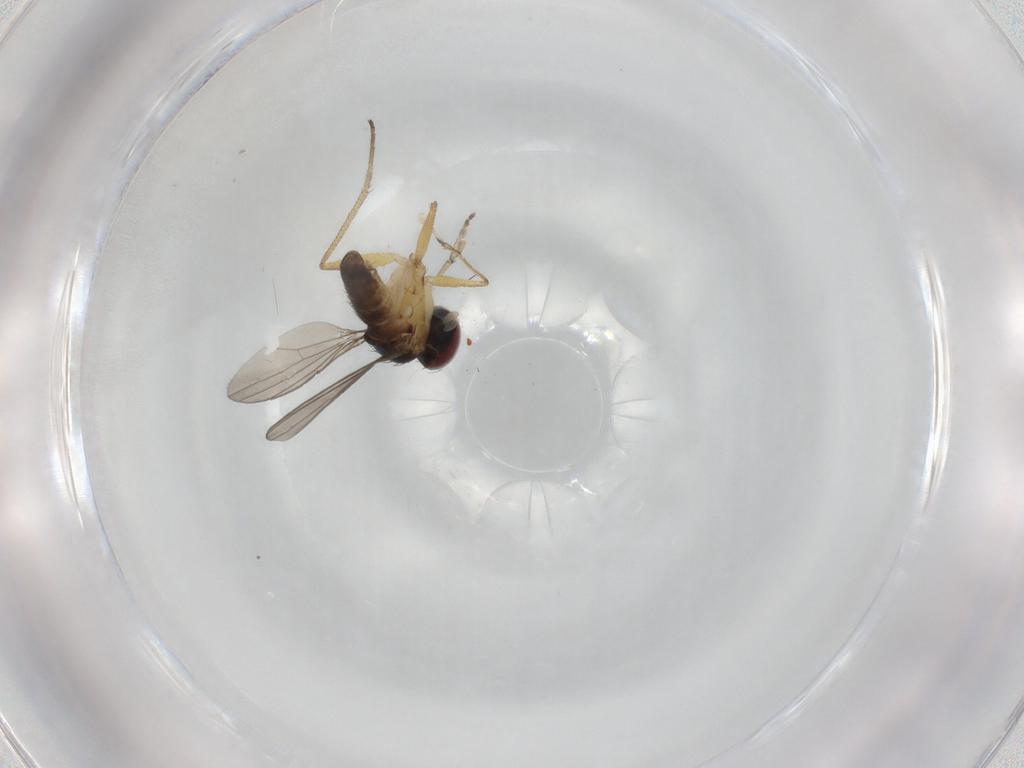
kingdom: Animalia
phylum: Arthropoda
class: Insecta
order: Diptera
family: Dolichopodidae
